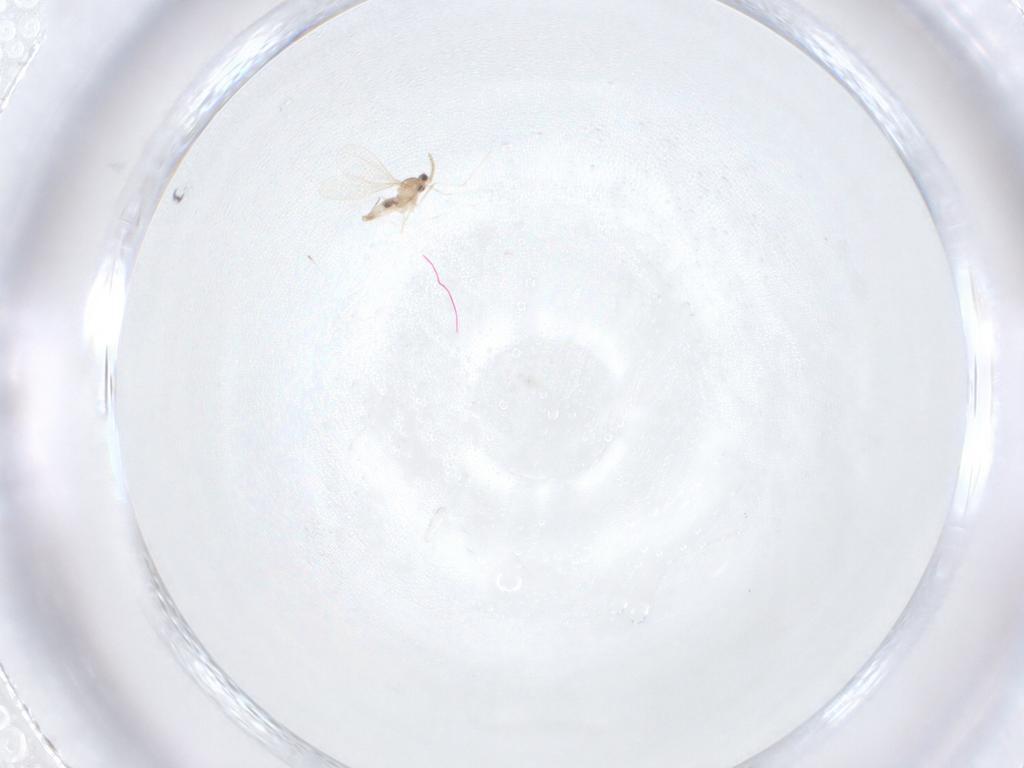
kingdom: Animalia
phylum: Arthropoda
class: Insecta
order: Diptera
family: Cecidomyiidae
